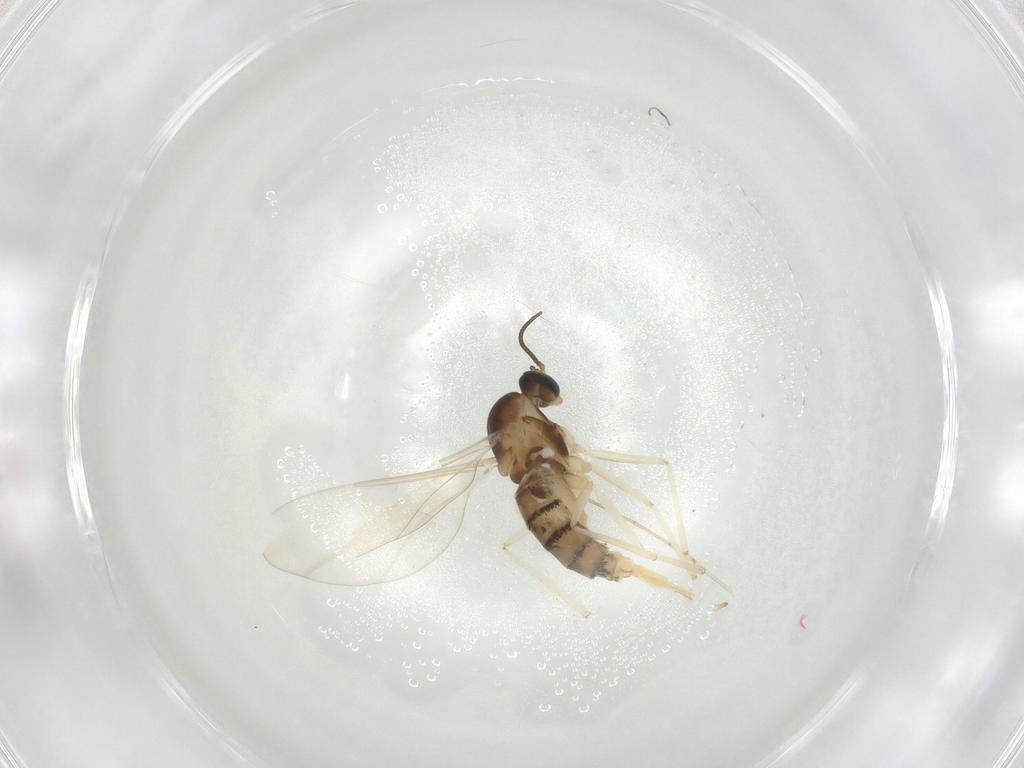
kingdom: Animalia
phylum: Arthropoda
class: Insecta
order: Diptera
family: Cecidomyiidae
